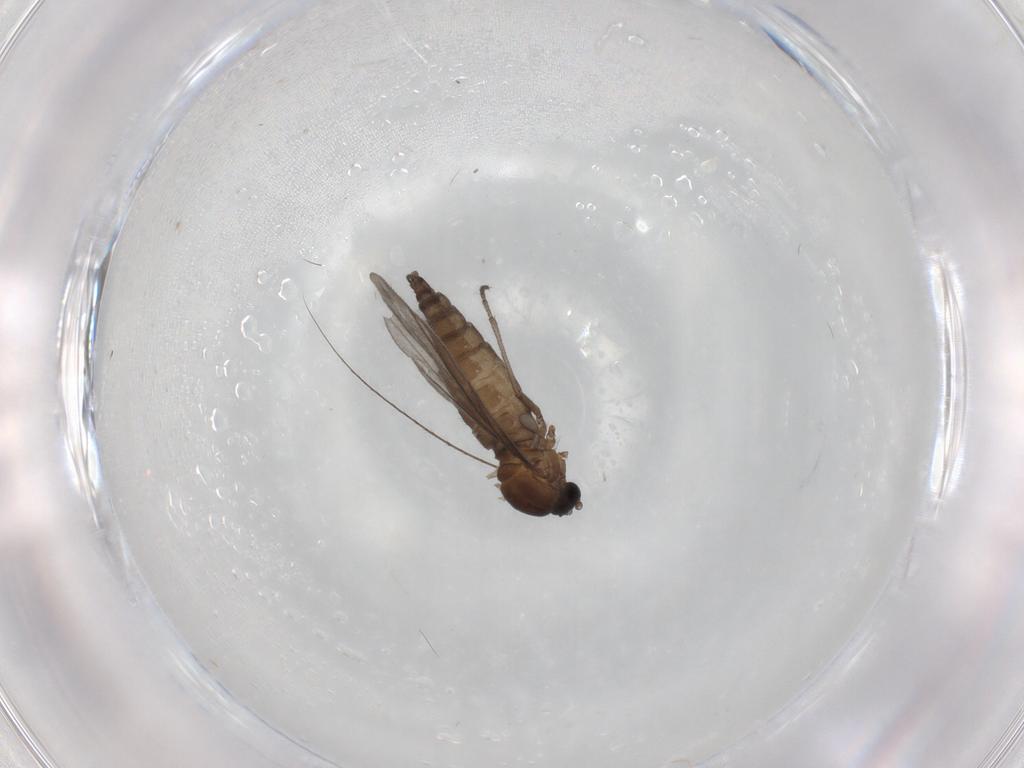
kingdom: Animalia
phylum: Arthropoda
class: Insecta
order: Diptera
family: Sciaridae
